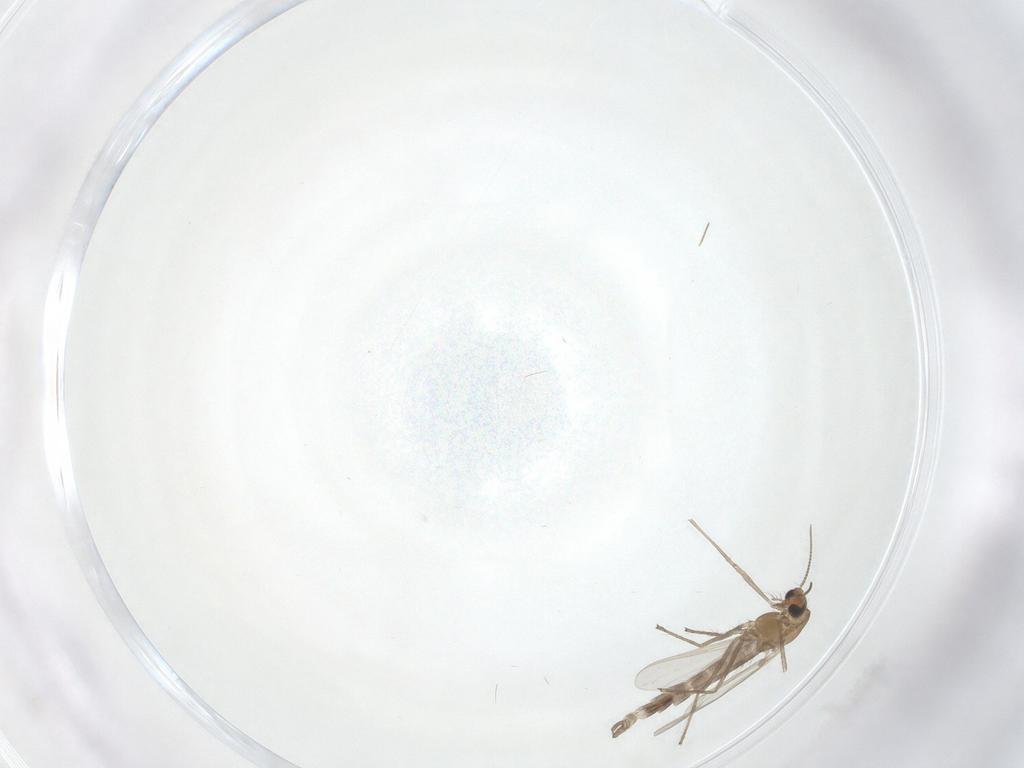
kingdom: Animalia
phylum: Arthropoda
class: Insecta
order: Diptera
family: Chironomidae
